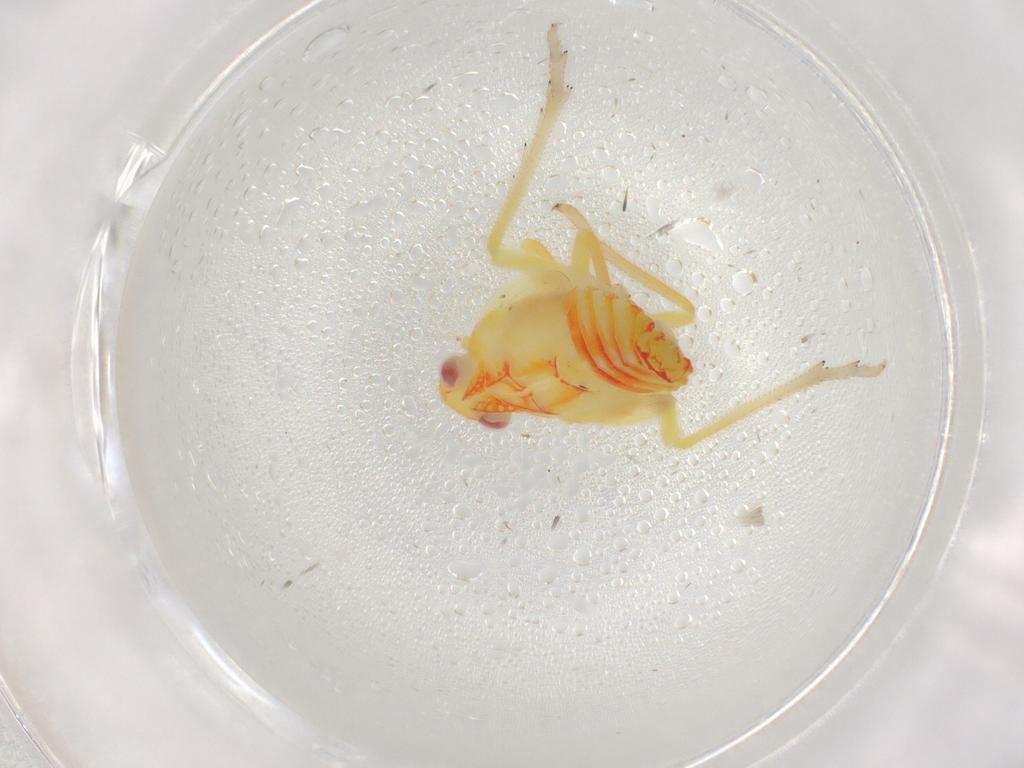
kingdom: Animalia
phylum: Arthropoda
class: Insecta
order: Hemiptera
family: Tropiduchidae
